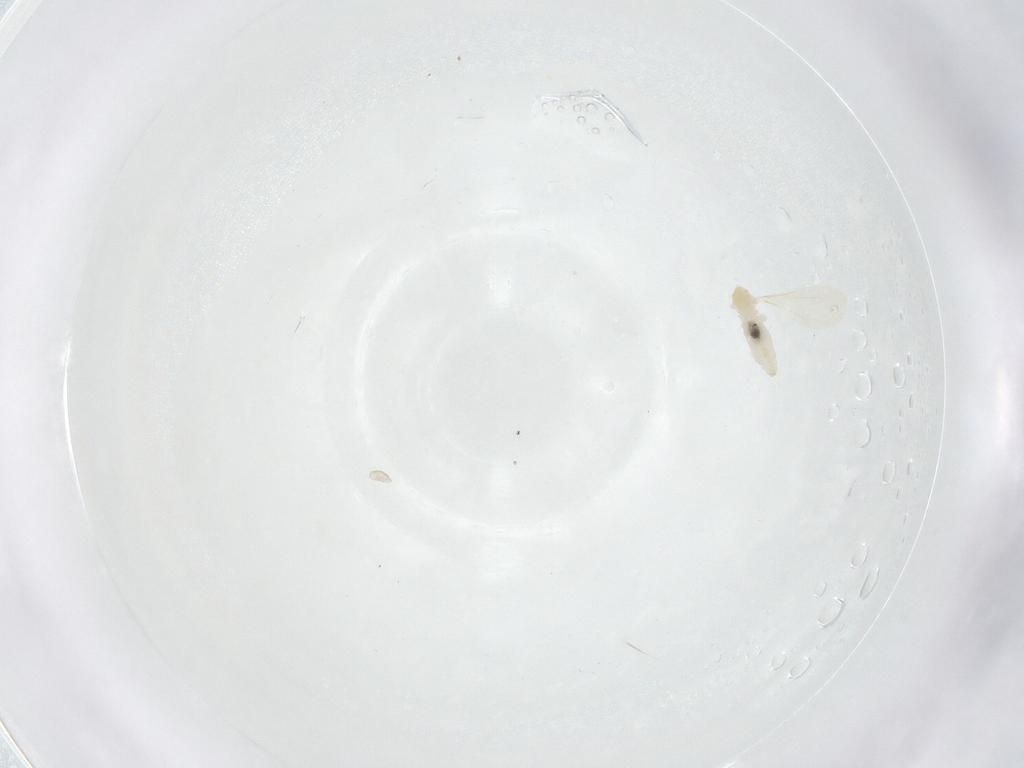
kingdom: Animalia
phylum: Arthropoda
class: Insecta
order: Diptera
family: Cecidomyiidae
